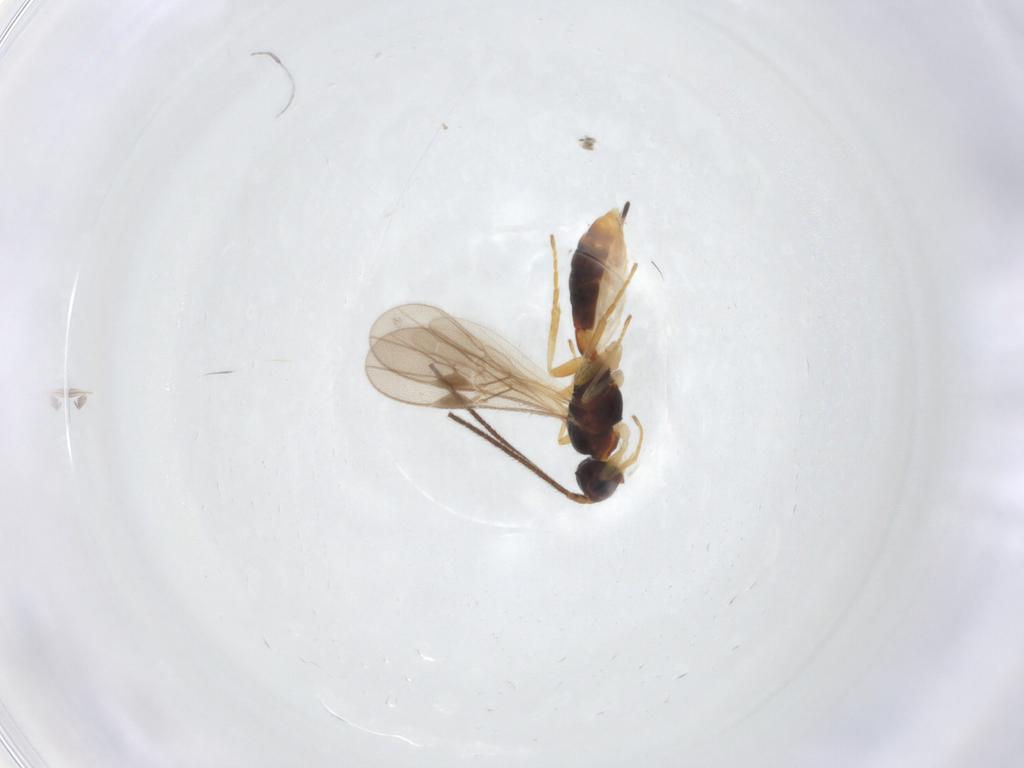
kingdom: Animalia
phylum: Arthropoda
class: Insecta
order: Hymenoptera
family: Braconidae
